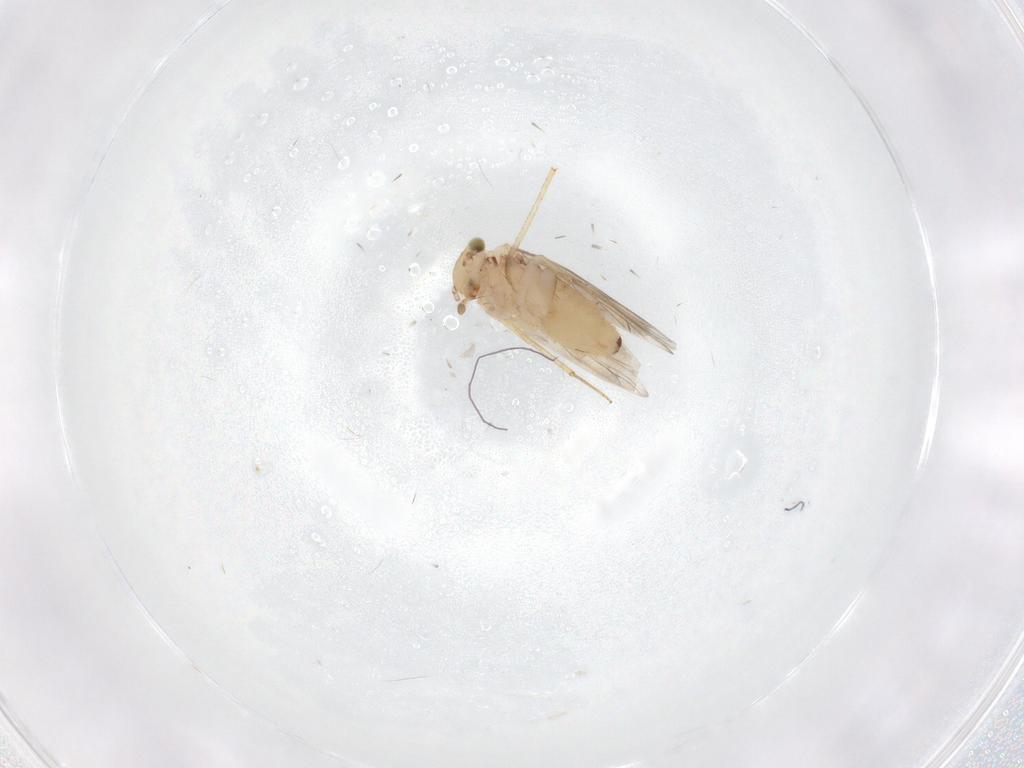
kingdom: Animalia
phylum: Arthropoda
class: Insecta
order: Psocodea
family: Lepidopsocidae
